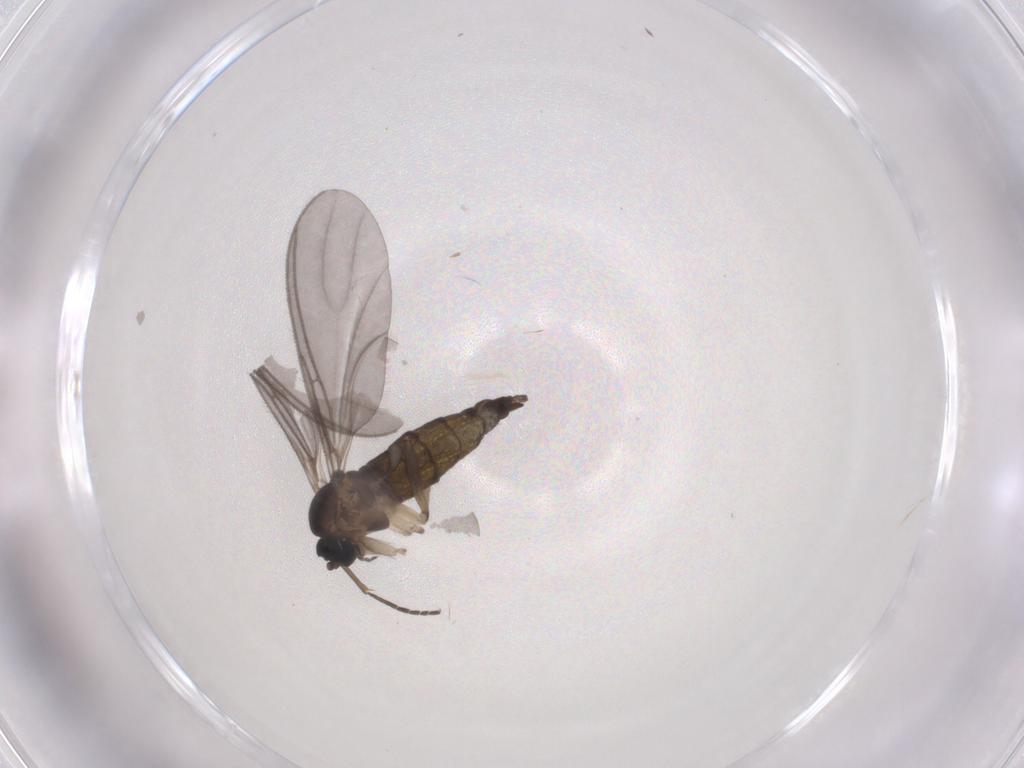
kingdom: Animalia
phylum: Arthropoda
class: Insecta
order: Diptera
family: Sciaridae
